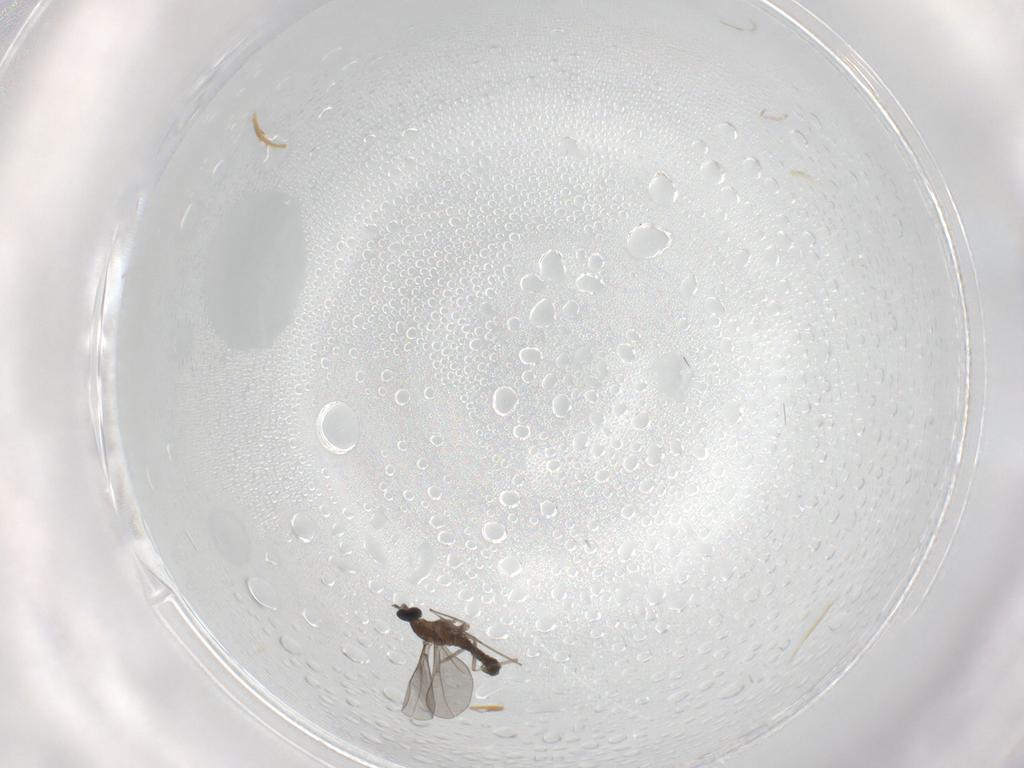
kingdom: Animalia
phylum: Arthropoda
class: Insecta
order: Diptera
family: Cecidomyiidae
